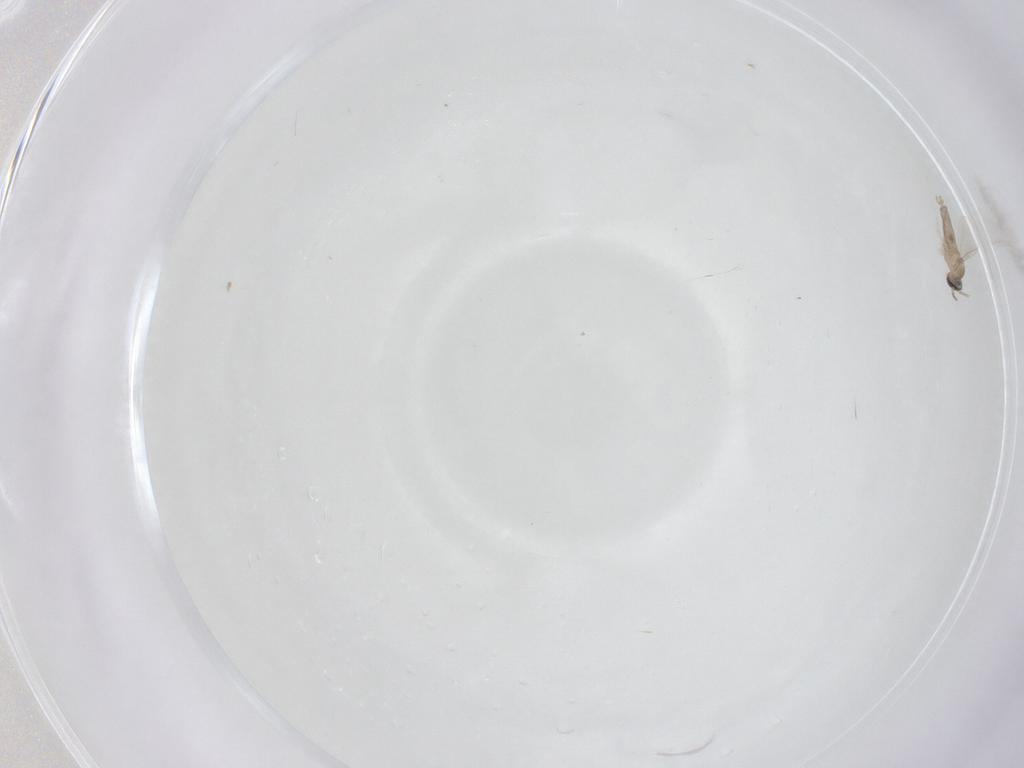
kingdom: Animalia
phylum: Arthropoda
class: Insecta
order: Diptera
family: Cecidomyiidae
